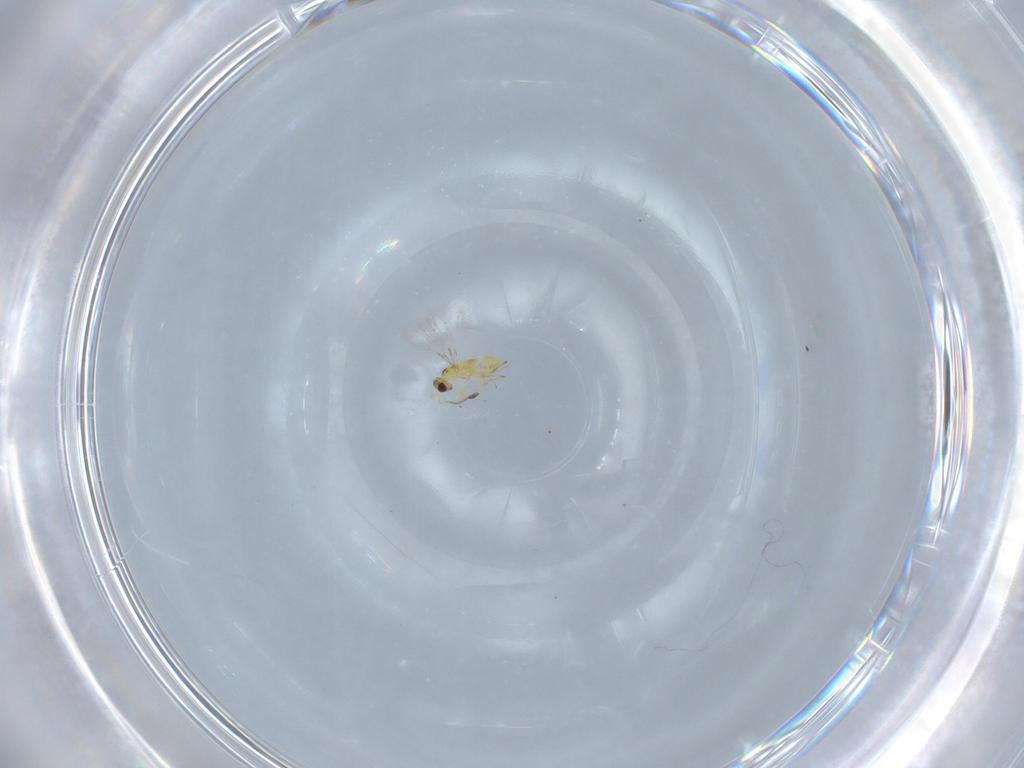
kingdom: Animalia
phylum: Arthropoda
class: Insecta
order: Hymenoptera
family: Mymaridae
